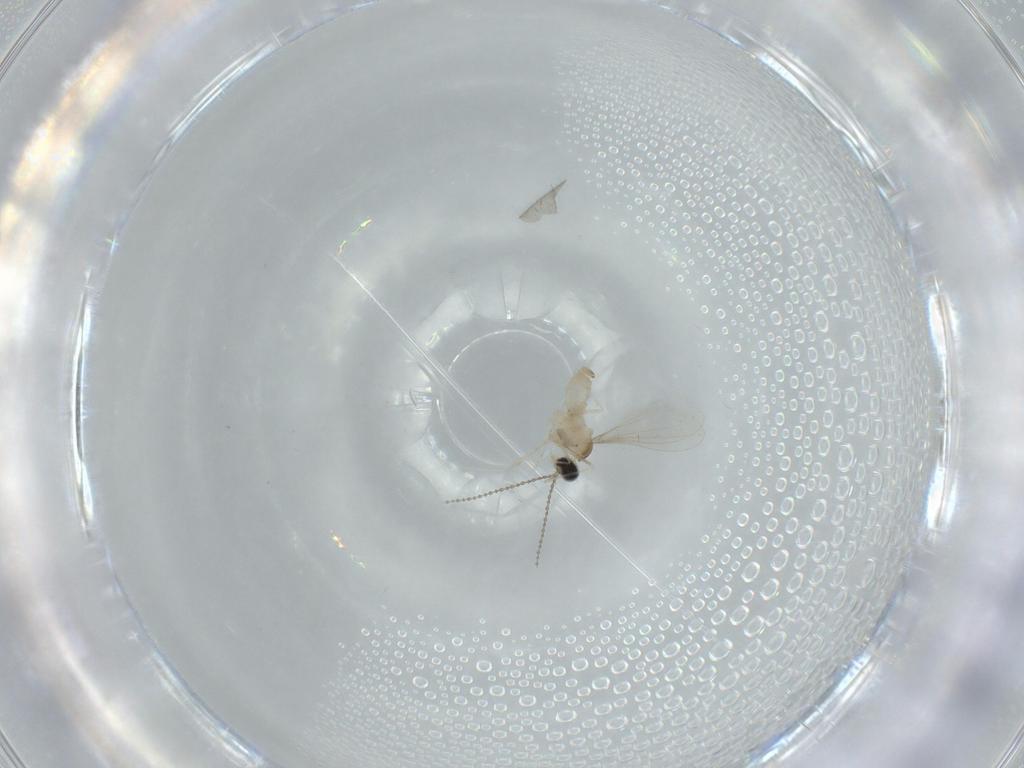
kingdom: Animalia
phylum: Arthropoda
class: Insecta
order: Diptera
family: Cecidomyiidae
